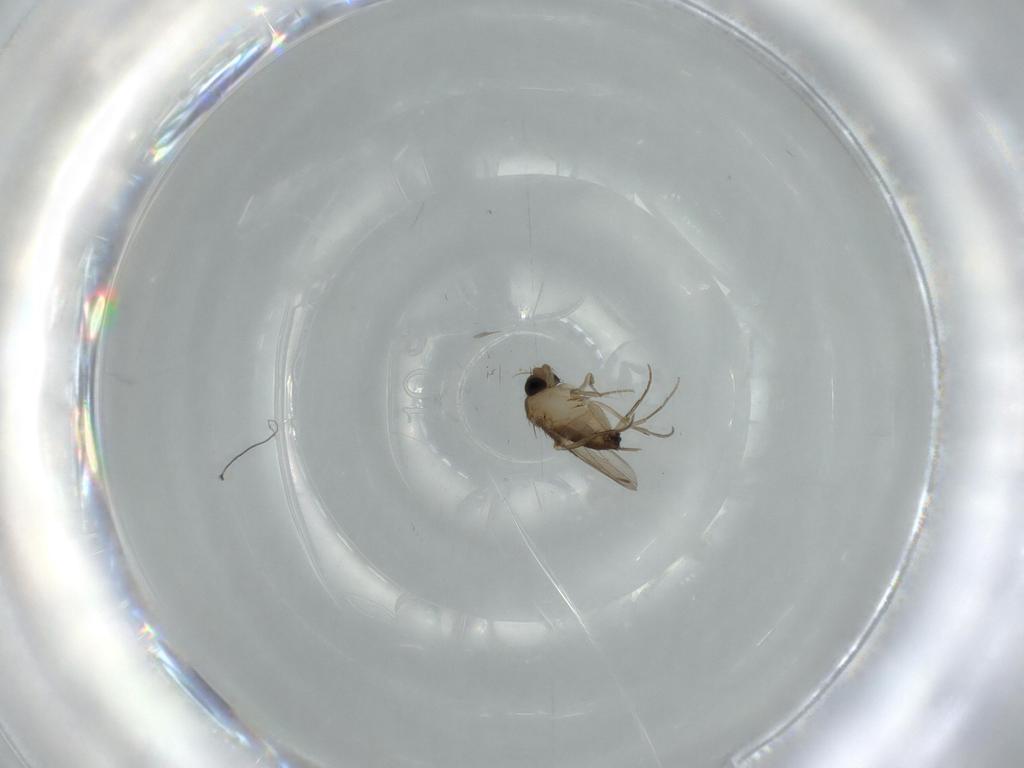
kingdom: Animalia
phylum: Arthropoda
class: Insecta
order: Diptera
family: Phoridae
